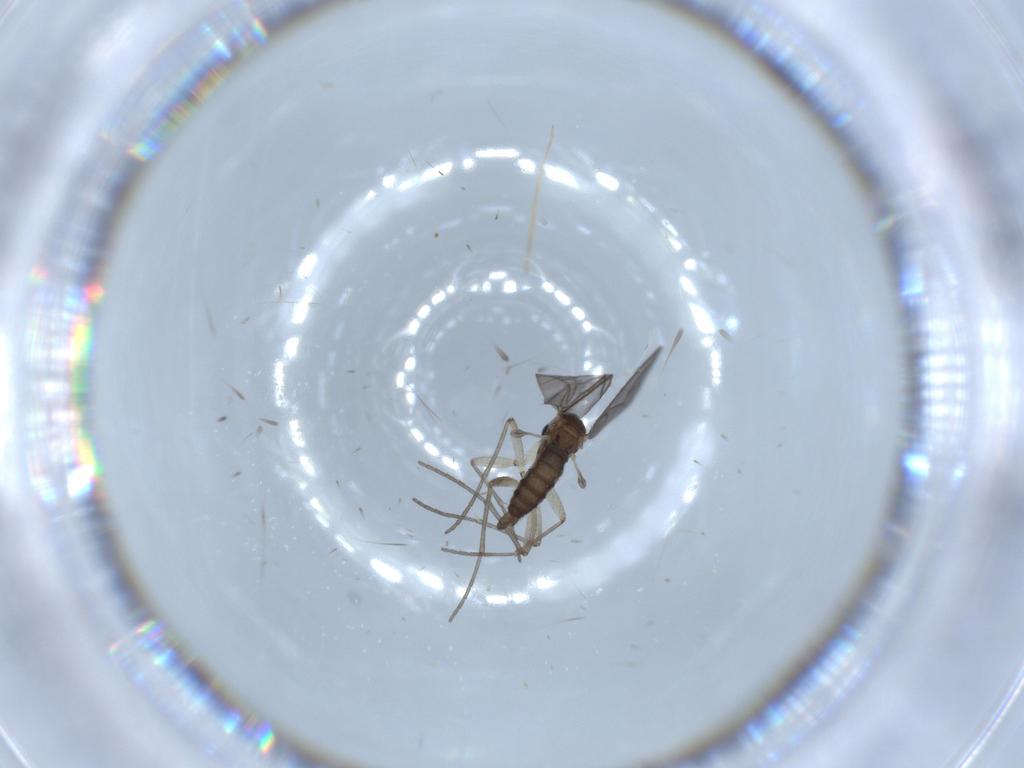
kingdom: Animalia
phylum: Arthropoda
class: Insecta
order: Diptera
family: Sciaridae
